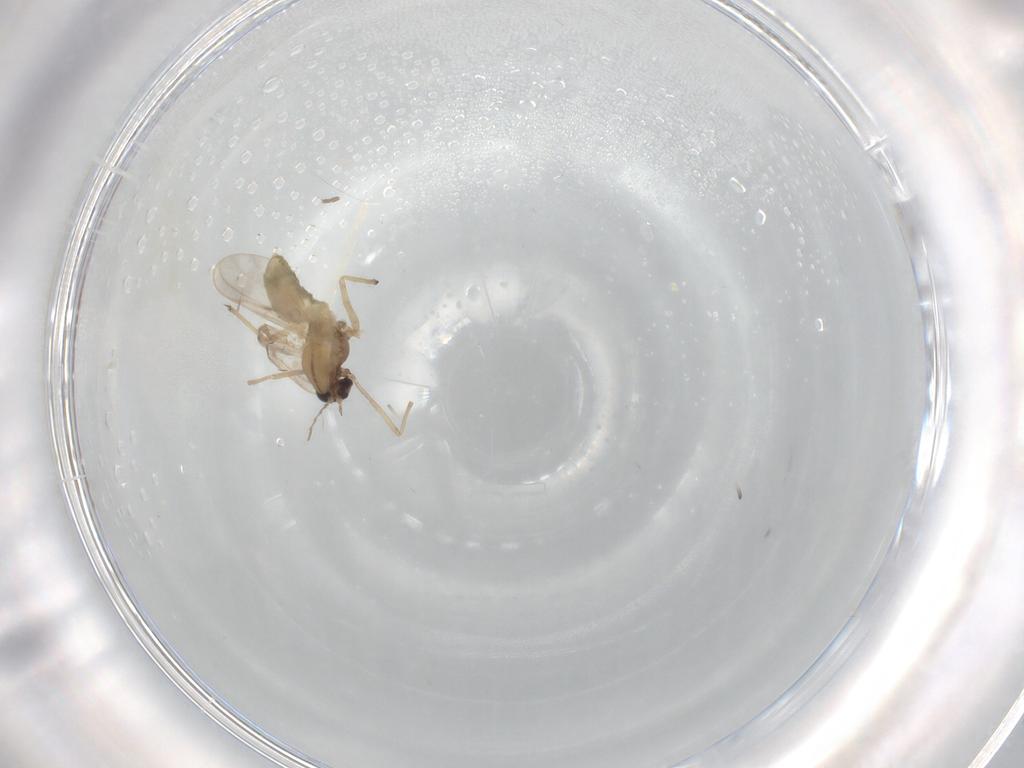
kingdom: Animalia
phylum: Arthropoda
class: Insecta
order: Diptera
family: Chironomidae
